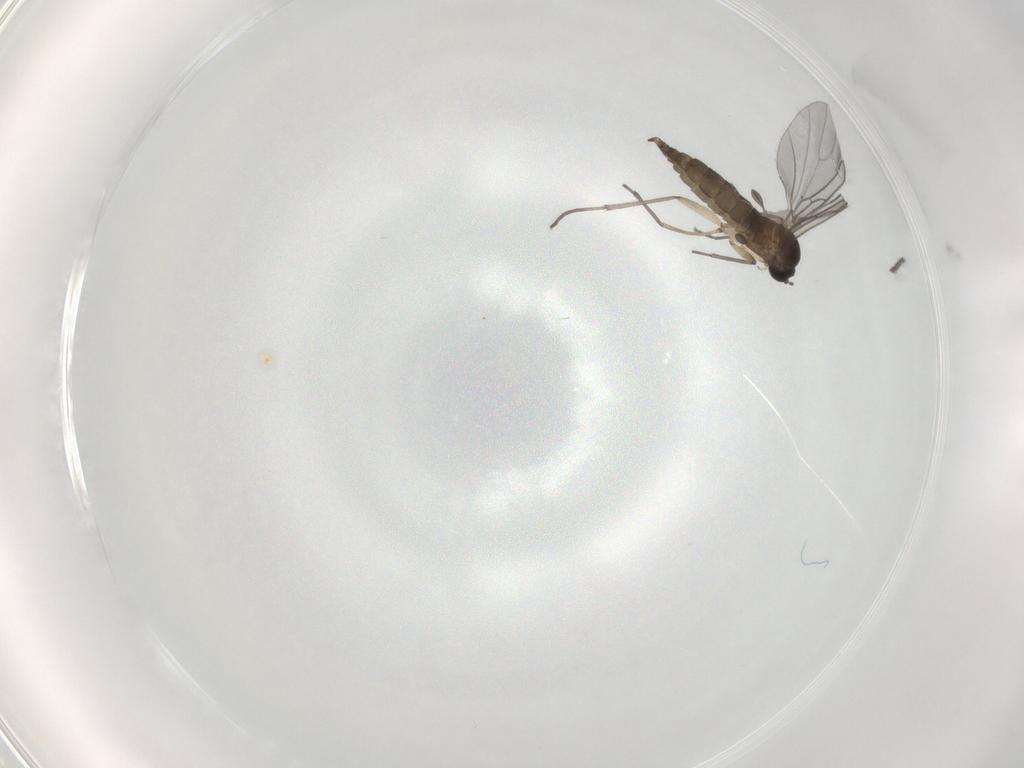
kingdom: Animalia
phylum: Arthropoda
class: Insecta
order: Diptera
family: Sciaridae
